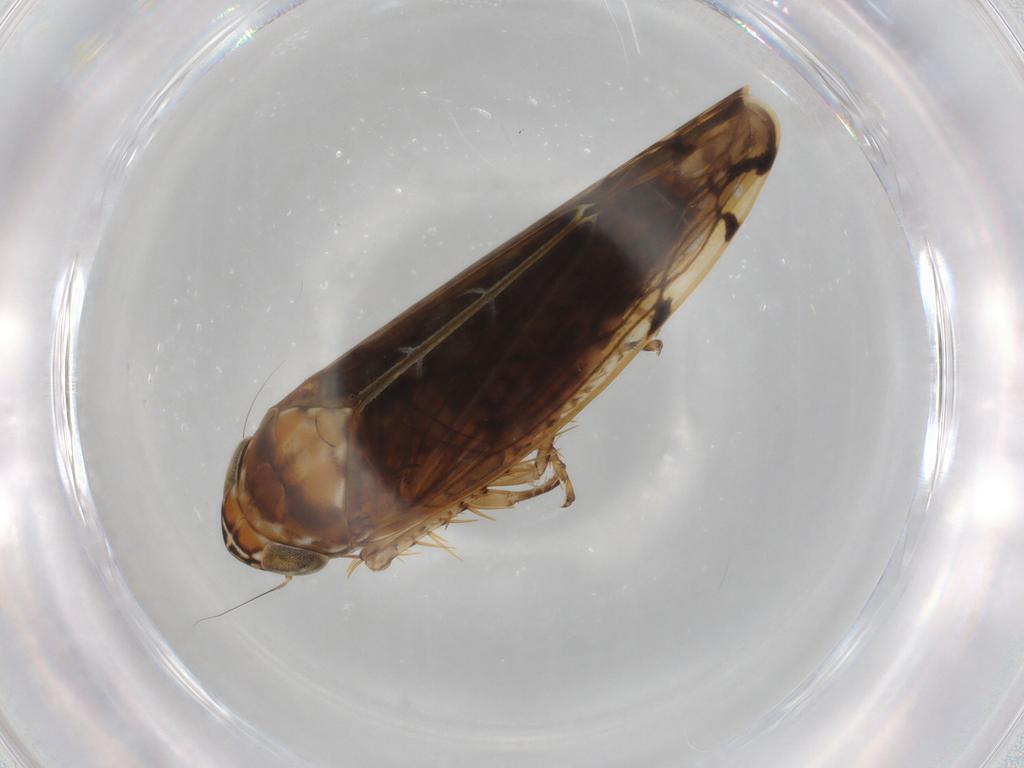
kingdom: Animalia
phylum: Arthropoda
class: Insecta
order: Hemiptera
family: Cicadellidae
